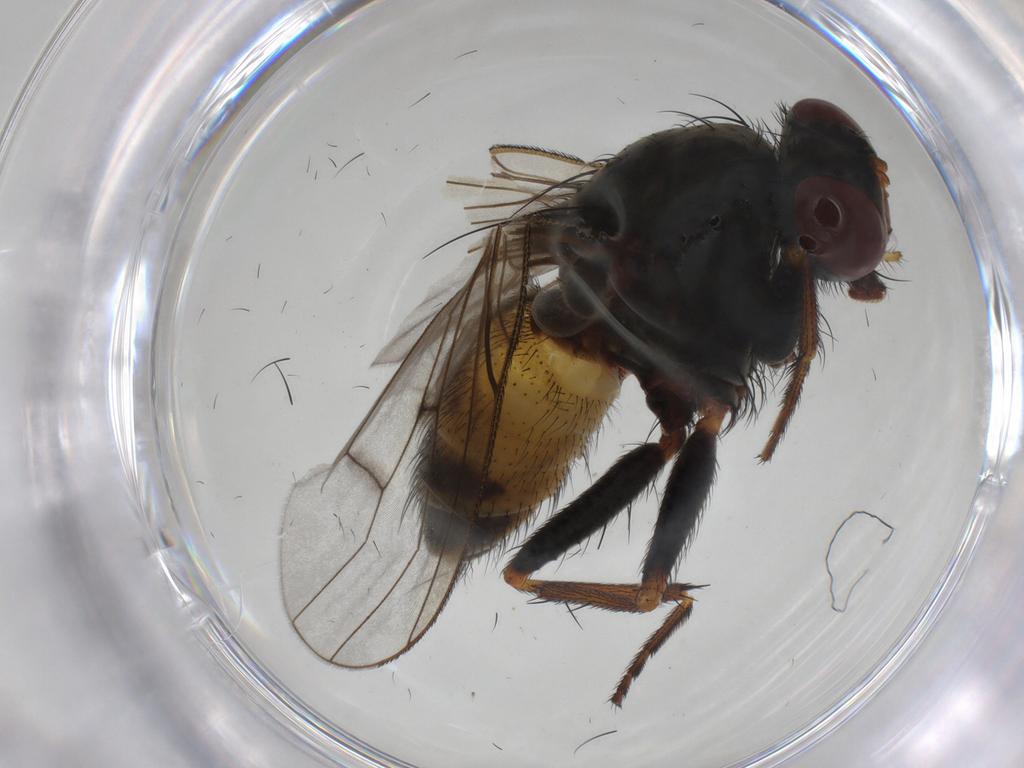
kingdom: Animalia
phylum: Arthropoda
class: Insecta
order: Diptera
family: Muscidae
